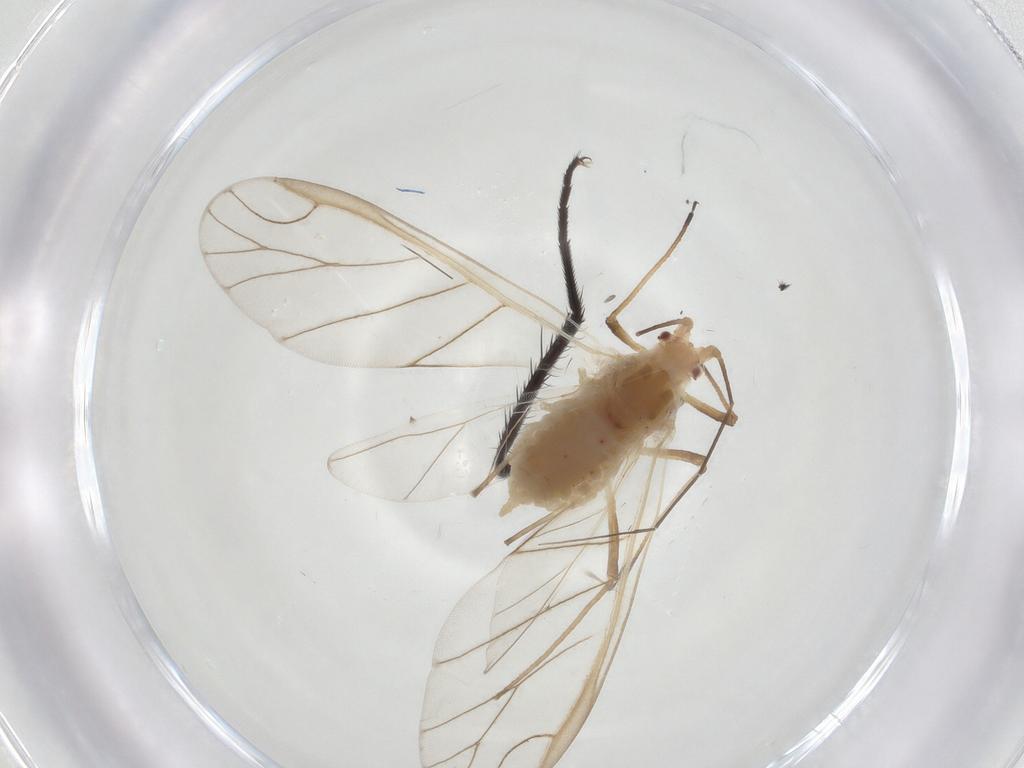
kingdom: Animalia
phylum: Arthropoda
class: Insecta
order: Hemiptera
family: Aphididae
